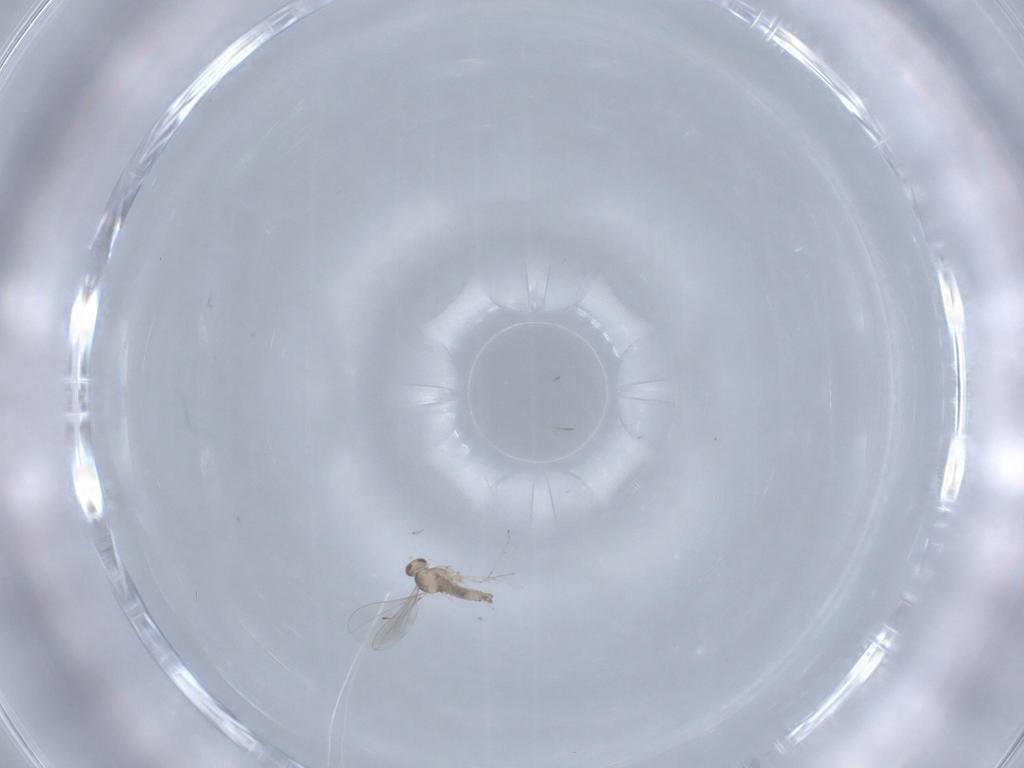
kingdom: Animalia
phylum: Arthropoda
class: Insecta
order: Diptera
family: Cecidomyiidae
